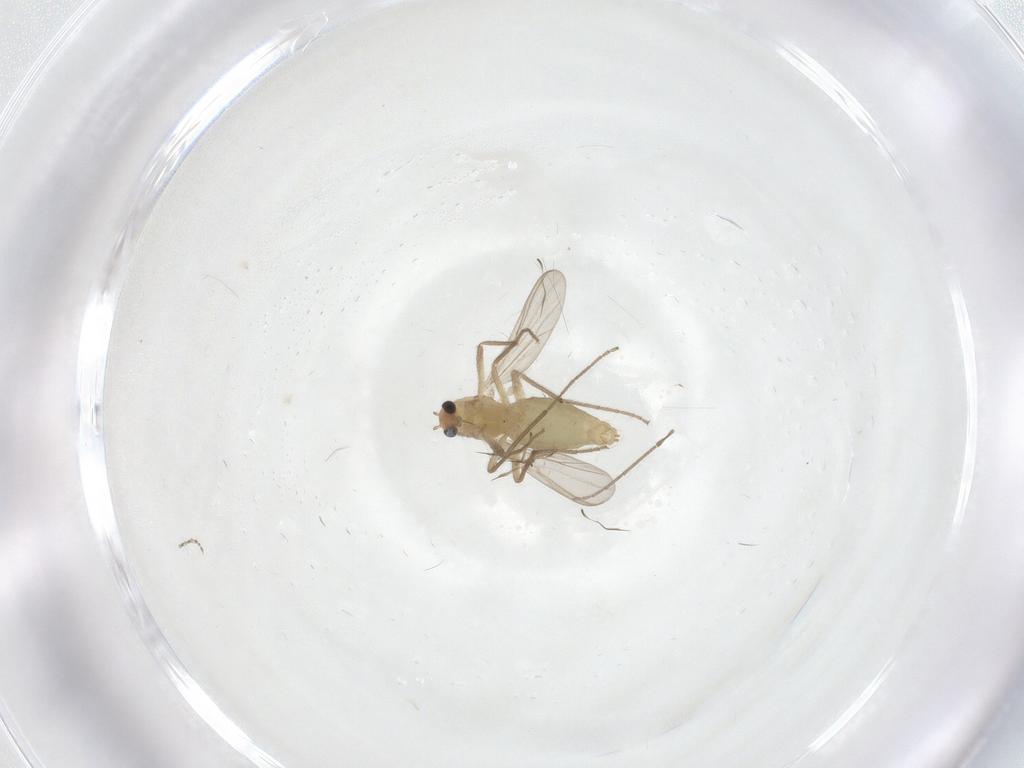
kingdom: Animalia
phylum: Arthropoda
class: Insecta
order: Diptera
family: Chironomidae
